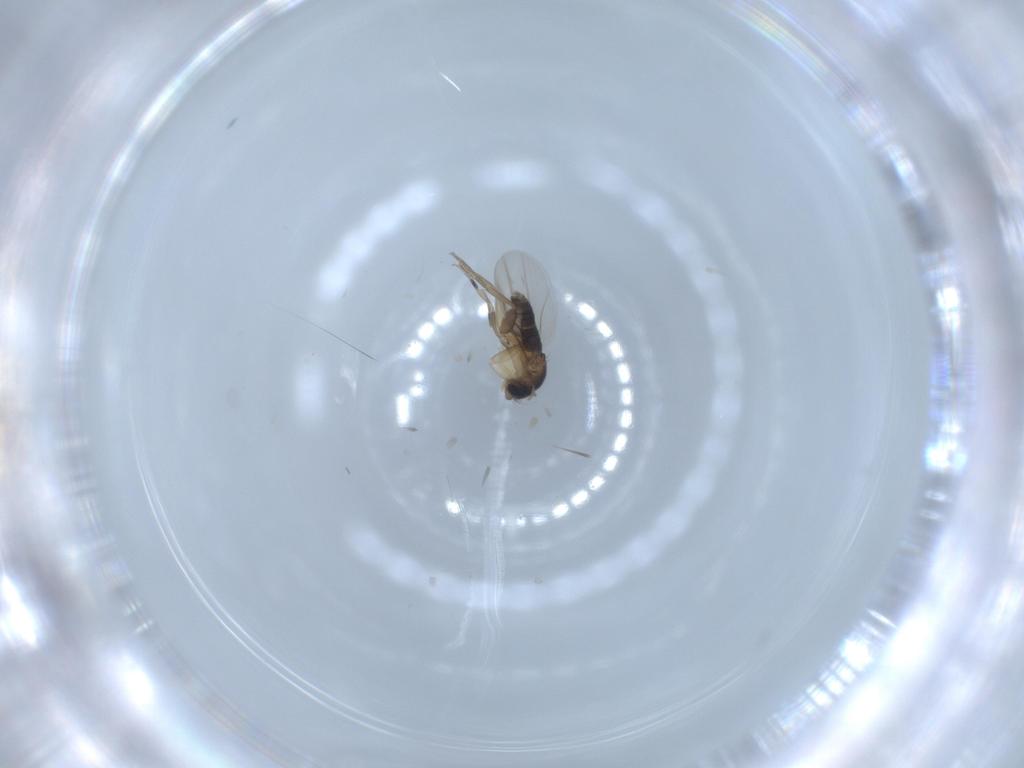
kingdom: Animalia
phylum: Arthropoda
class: Insecta
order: Diptera
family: Phoridae
